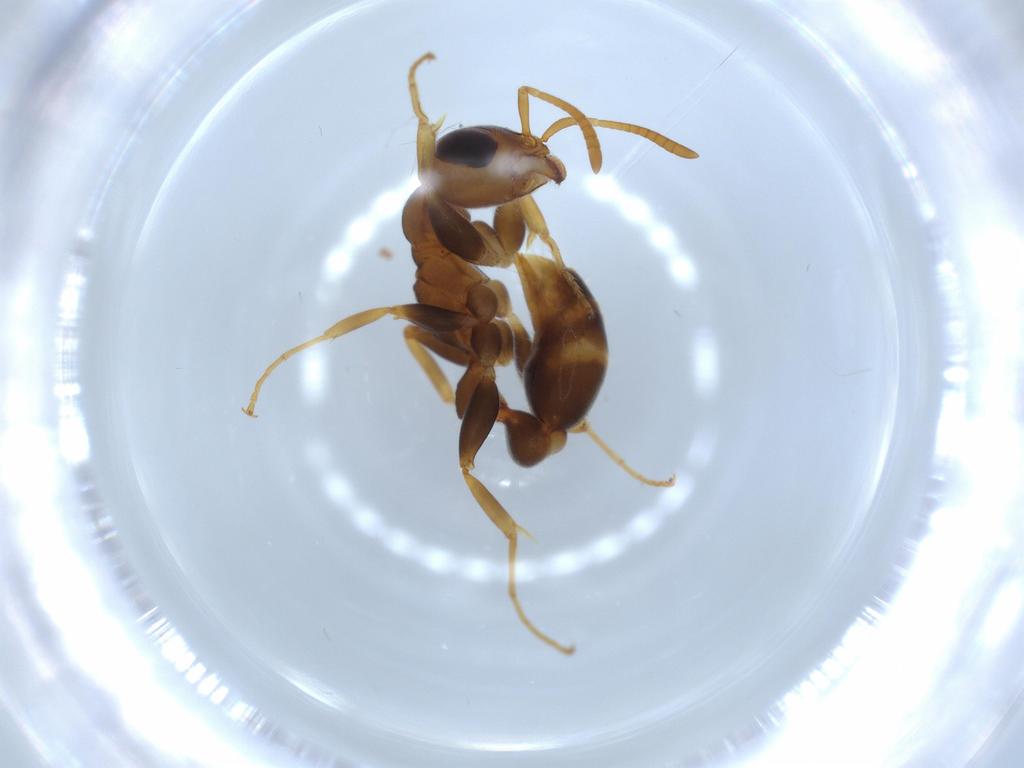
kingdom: Animalia
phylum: Arthropoda
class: Insecta
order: Hymenoptera
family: Formicidae
